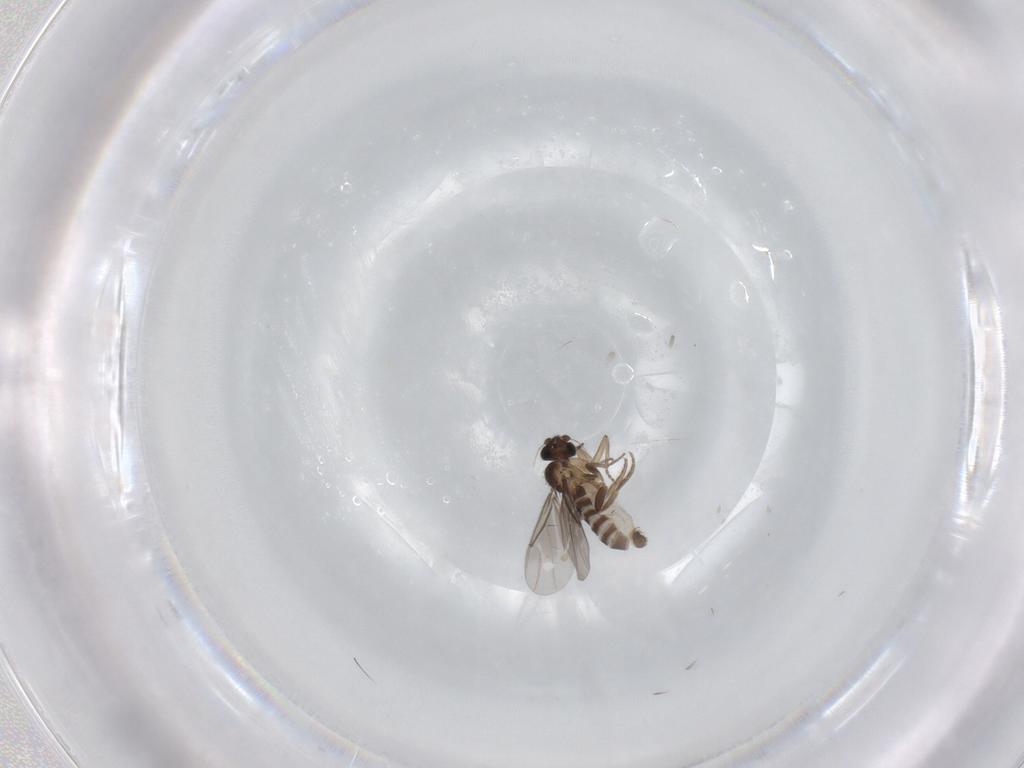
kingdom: Animalia
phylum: Arthropoda
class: Insecta
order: Diptera
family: Tabanidae
